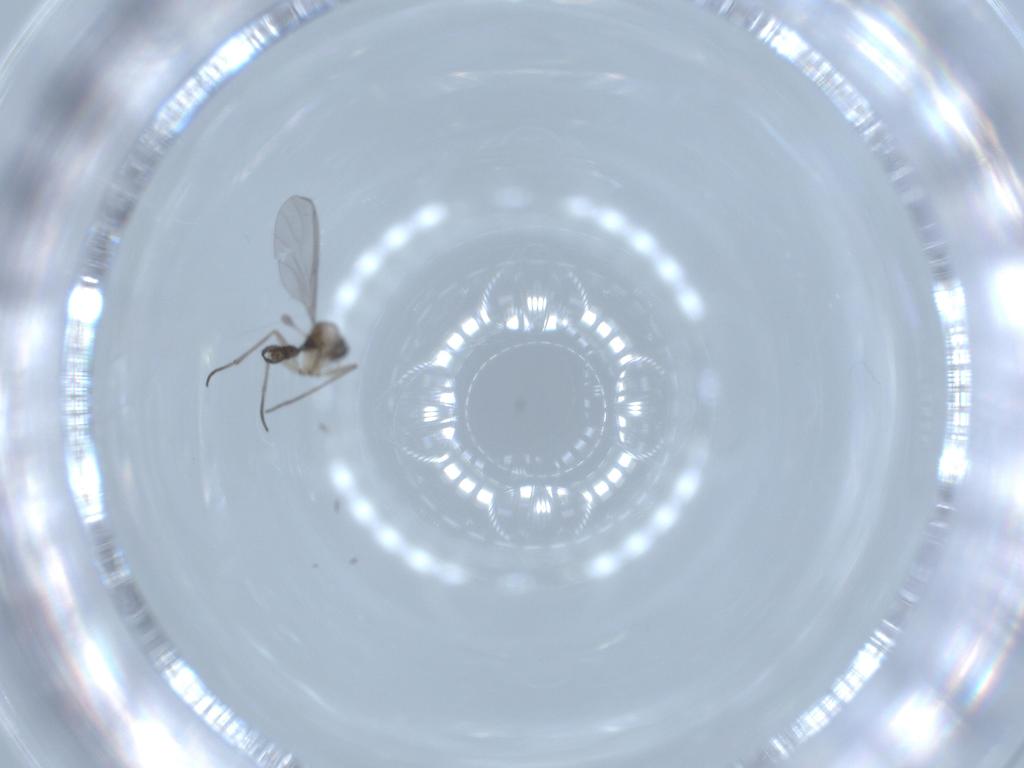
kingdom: Animalia
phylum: Arthropoda
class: Insecta
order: Diptera
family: Sciaridae
